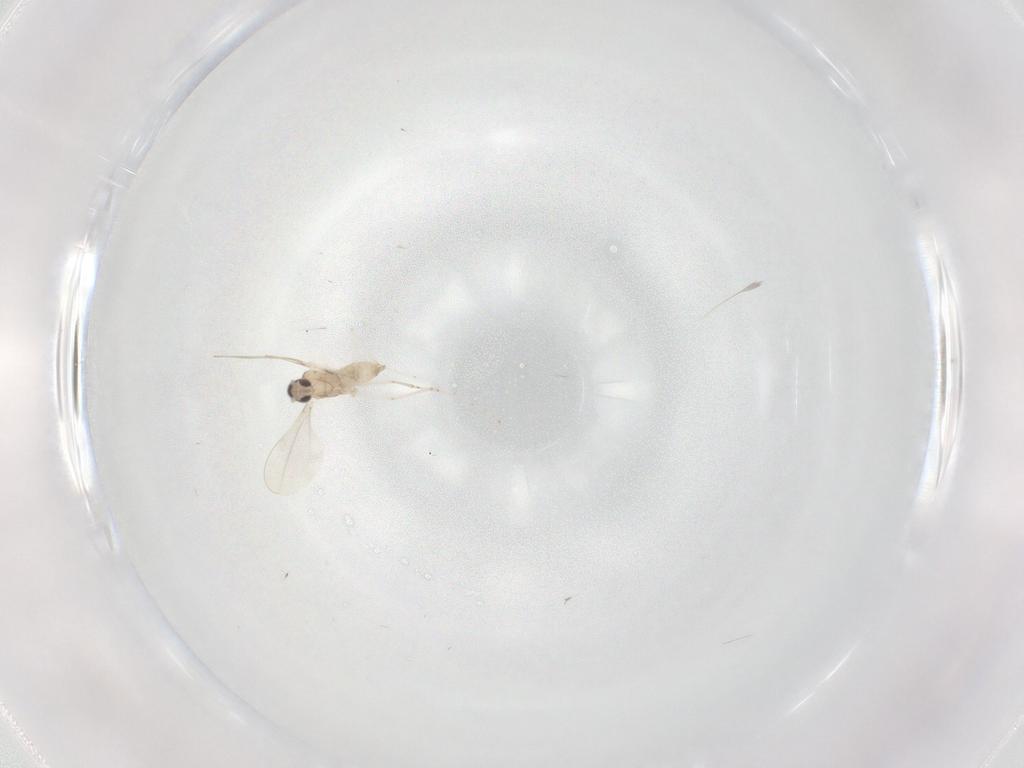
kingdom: Animalia
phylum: Arthropoda
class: Insecta
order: Diptera
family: Cecidomyiidae
